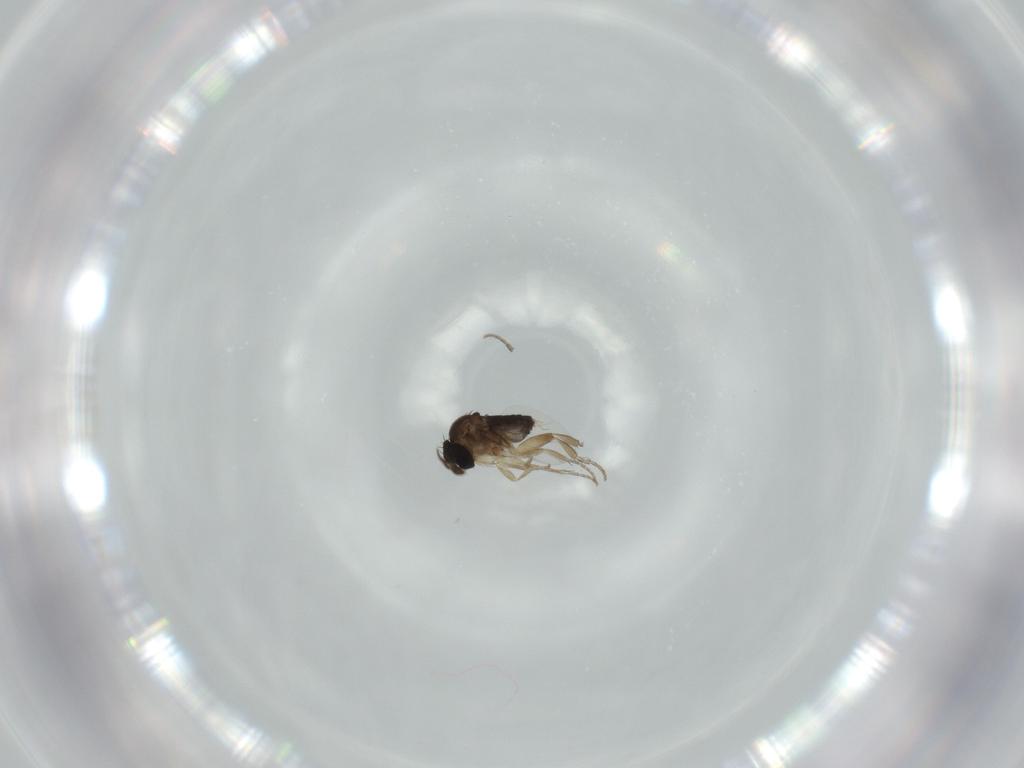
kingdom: Animalia
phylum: Arthropoda
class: Insecta
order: Diptera
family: Phoridae
